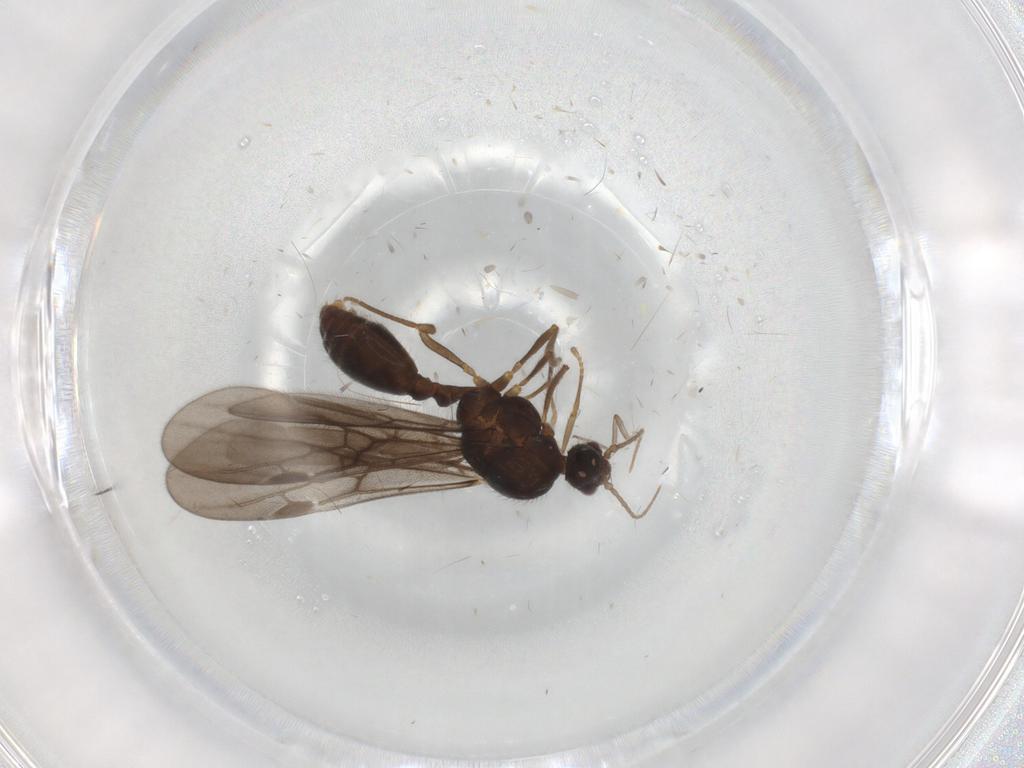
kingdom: Animalia
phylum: Arthropoda
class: Insecta
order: Hymenoptera
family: Formicidae
